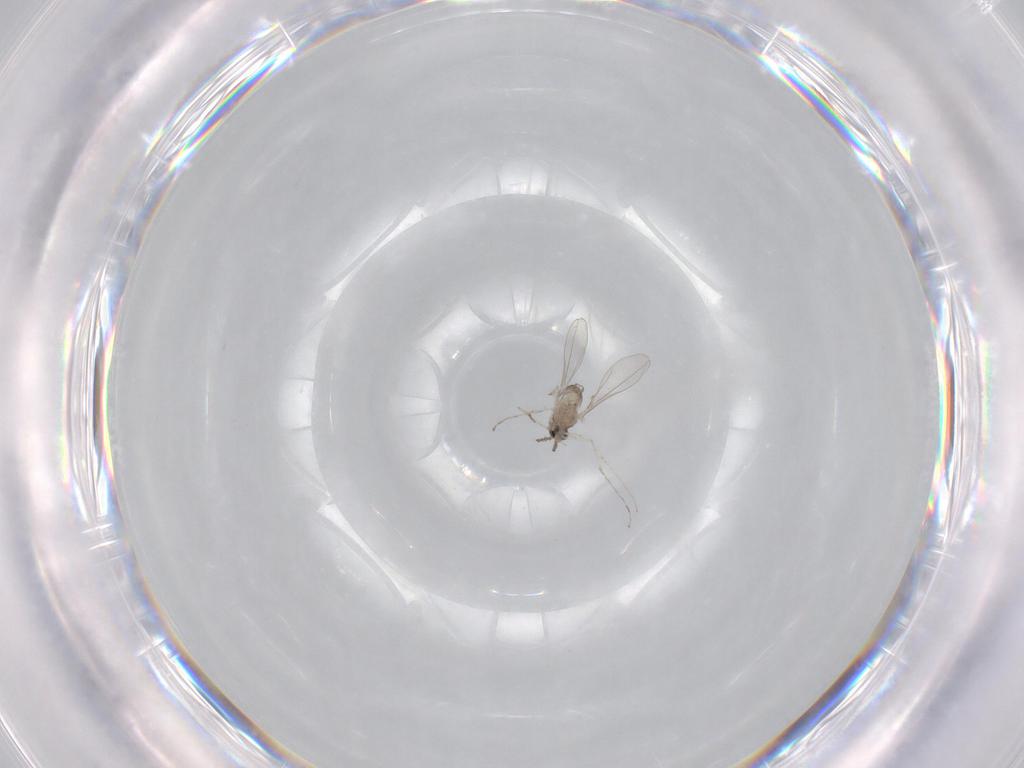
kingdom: Animalia
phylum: Arthropoda
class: Insecta
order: Diptera
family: Cecidomyiidae
